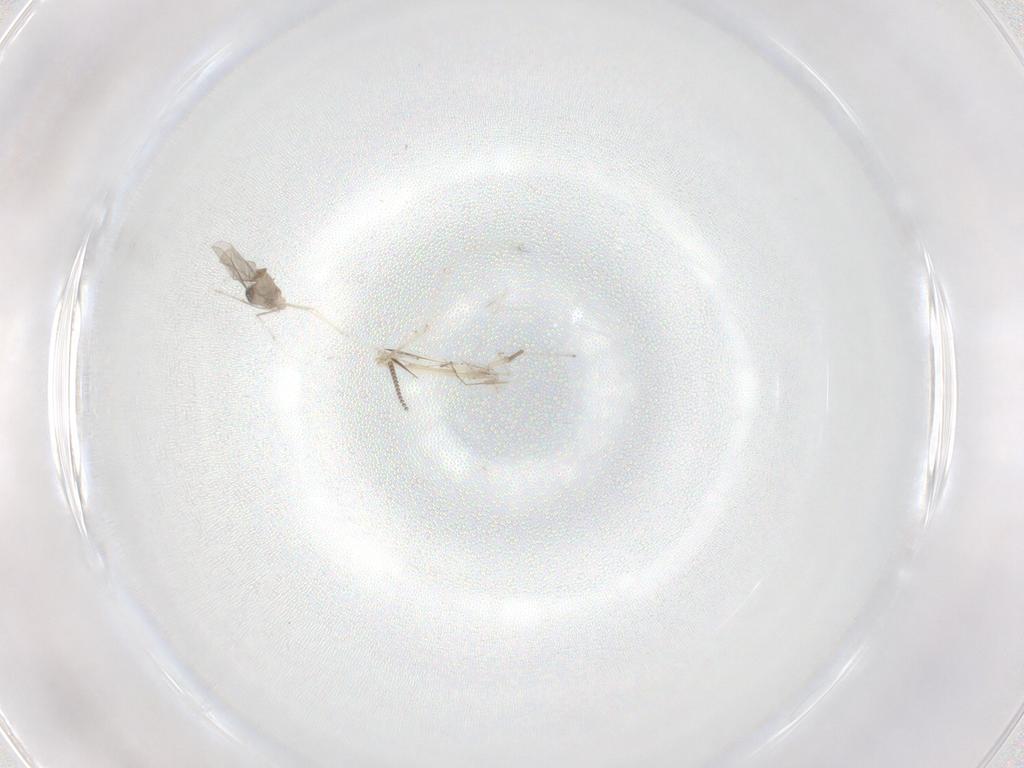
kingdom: Animalia
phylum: Arthropoda
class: Insecta
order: Diptera
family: Cecidomyiidae
